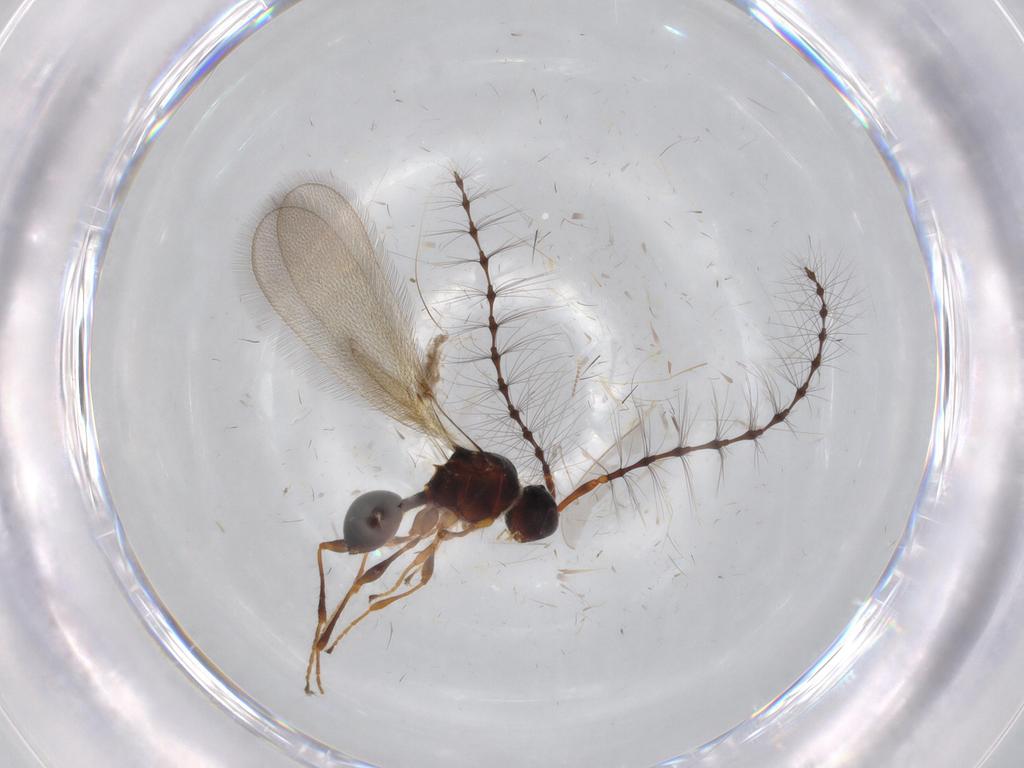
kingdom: Animalia
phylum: Arthropoda
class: Insecta
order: Hymenoptera
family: Diapriidae
